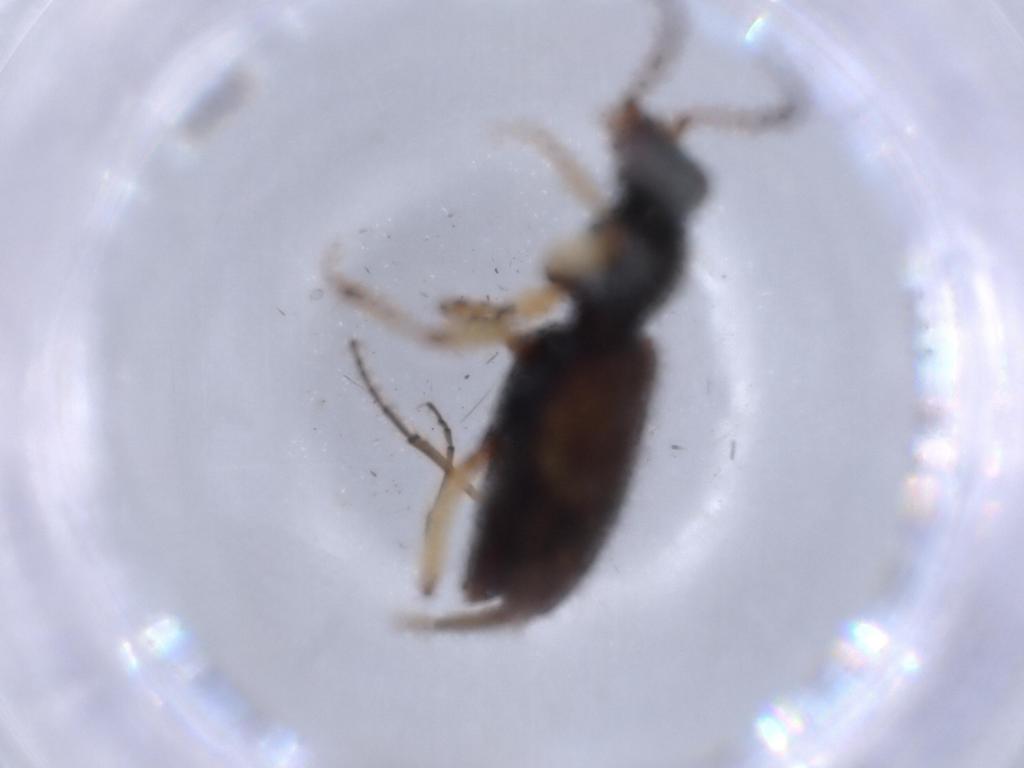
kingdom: Animalia
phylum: Arthropoda
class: Insecta
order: Coleoptera
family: Carabidae
